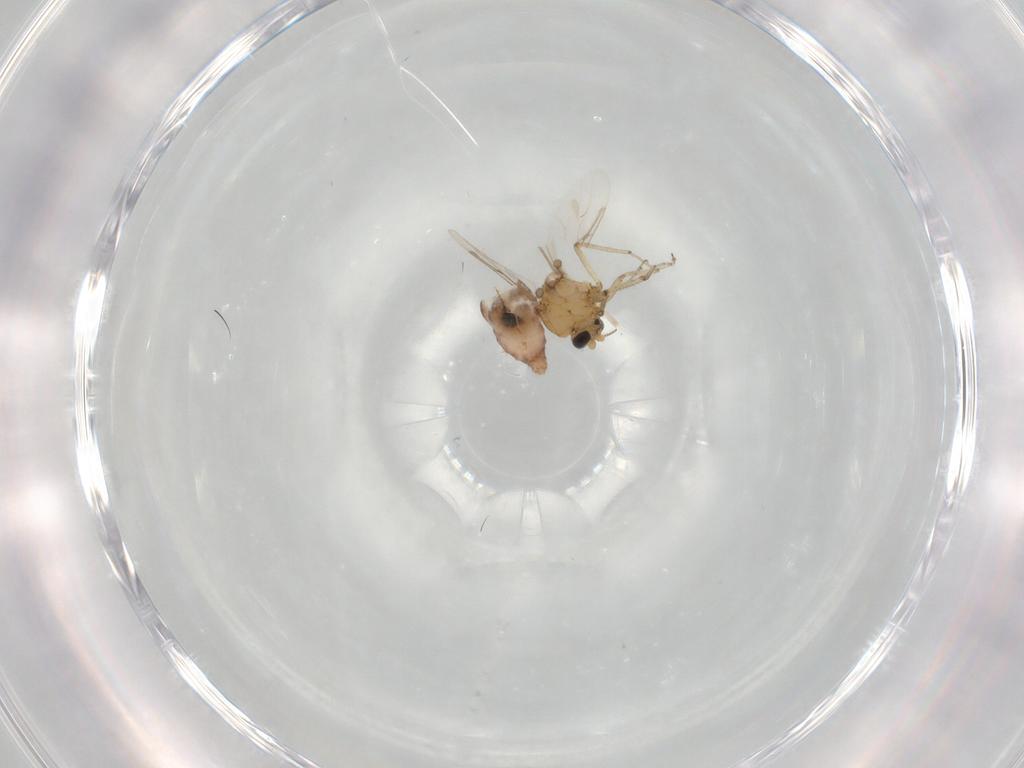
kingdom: Animalia
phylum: Arthropoda
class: Insecta
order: Diptera
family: Ceratopogonidae
